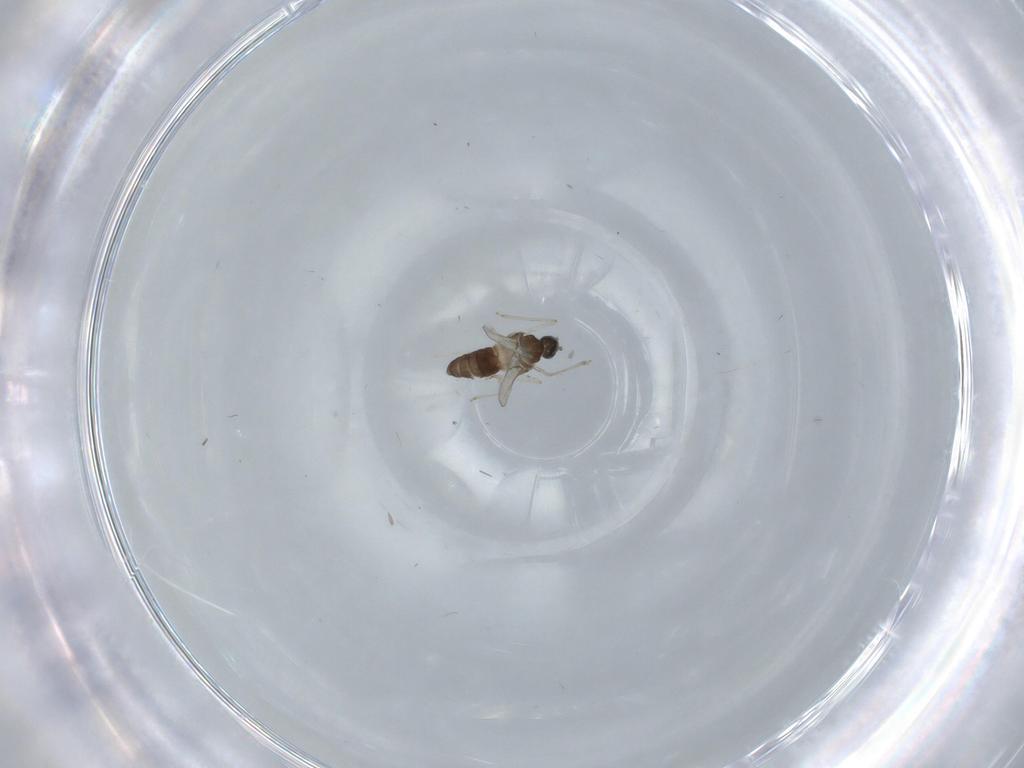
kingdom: Animalia
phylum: Arthropoda
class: Insecta
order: Diptera
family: Cecidomyiidae
